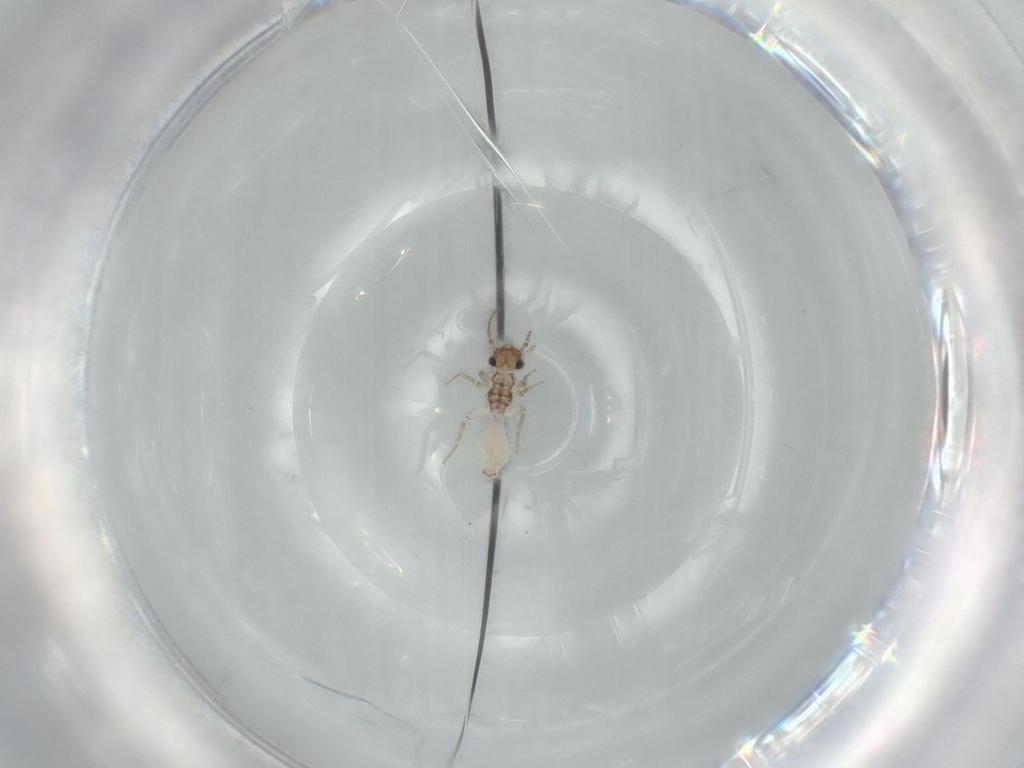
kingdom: Animalia
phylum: Arthropoda
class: Insecta
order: Psocodea
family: Lepidopsocidae
